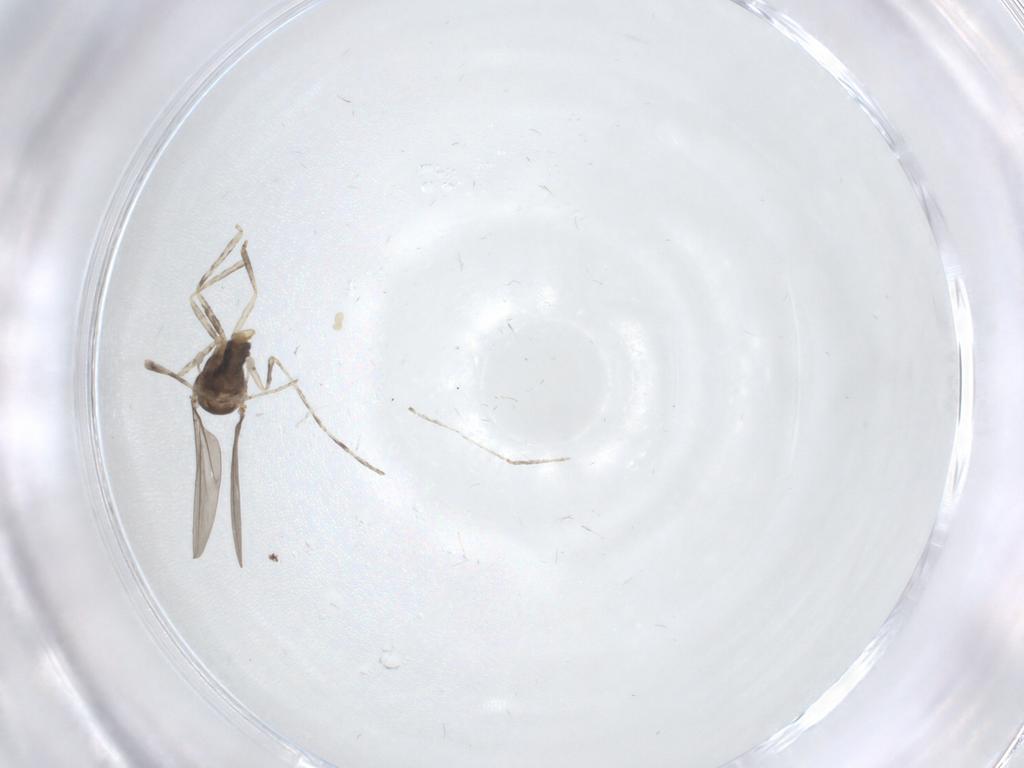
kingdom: Animalia
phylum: Arthropoda
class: Insecta
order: Diptera
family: Cecidomyiidae
